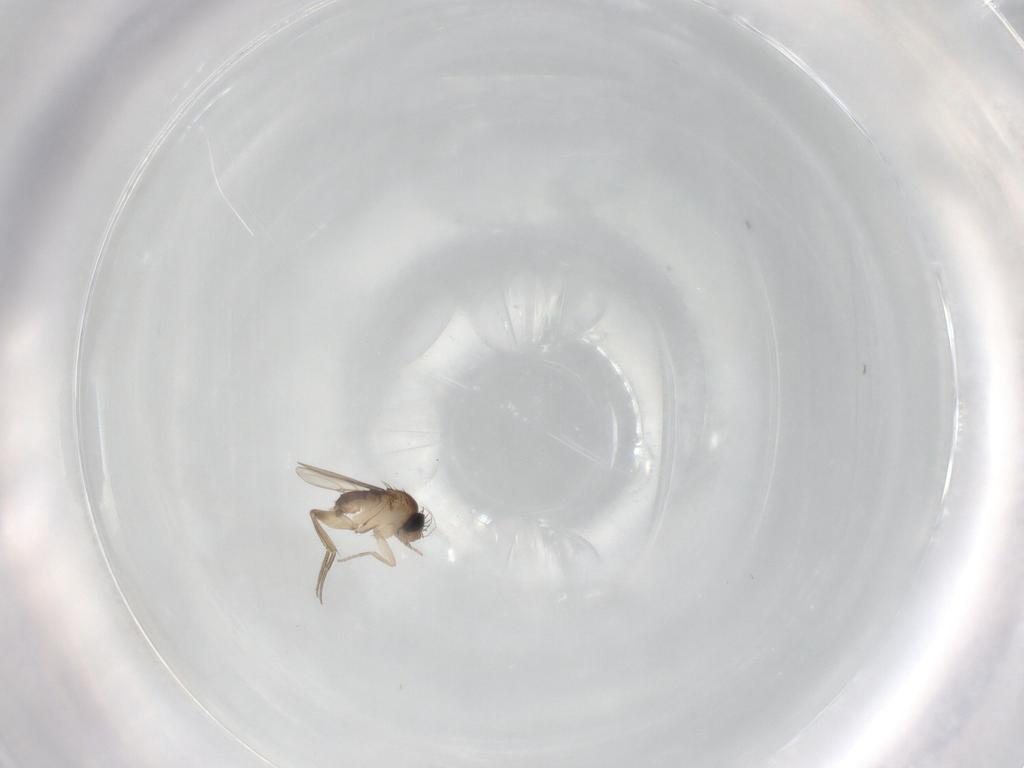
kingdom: Animalia
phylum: Arthropoda
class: Insecta
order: Diptera
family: Phoridae
